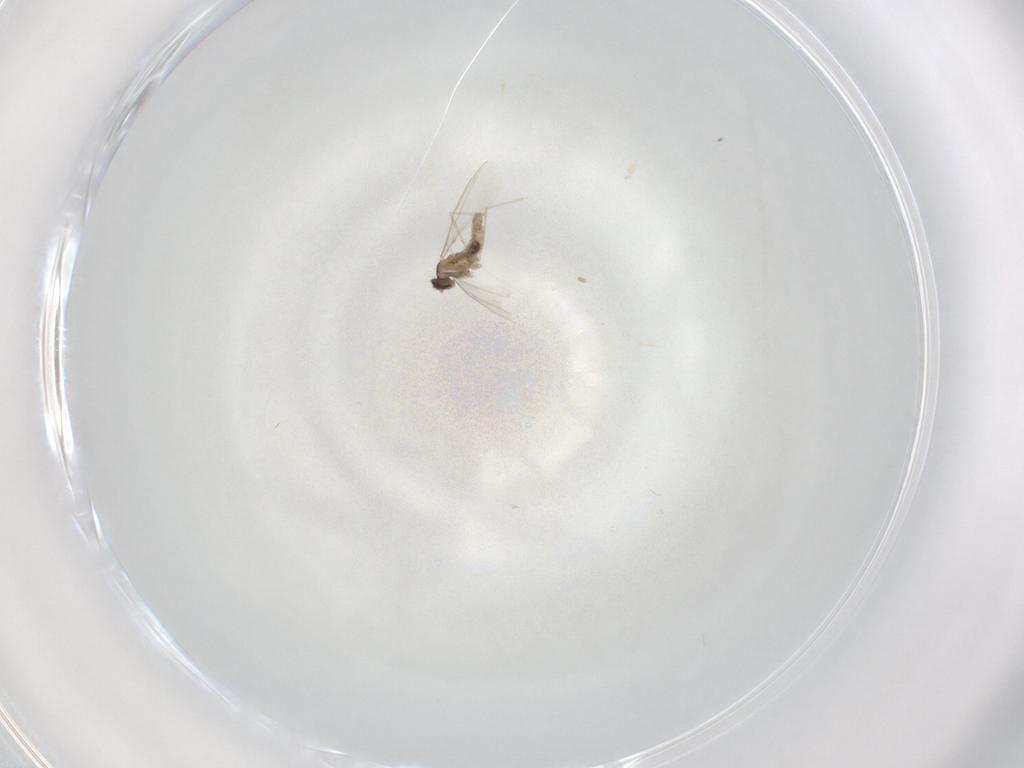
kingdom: Animalia
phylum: Arthropoda
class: Insecta
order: Diptera
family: Cecidomyiidae
